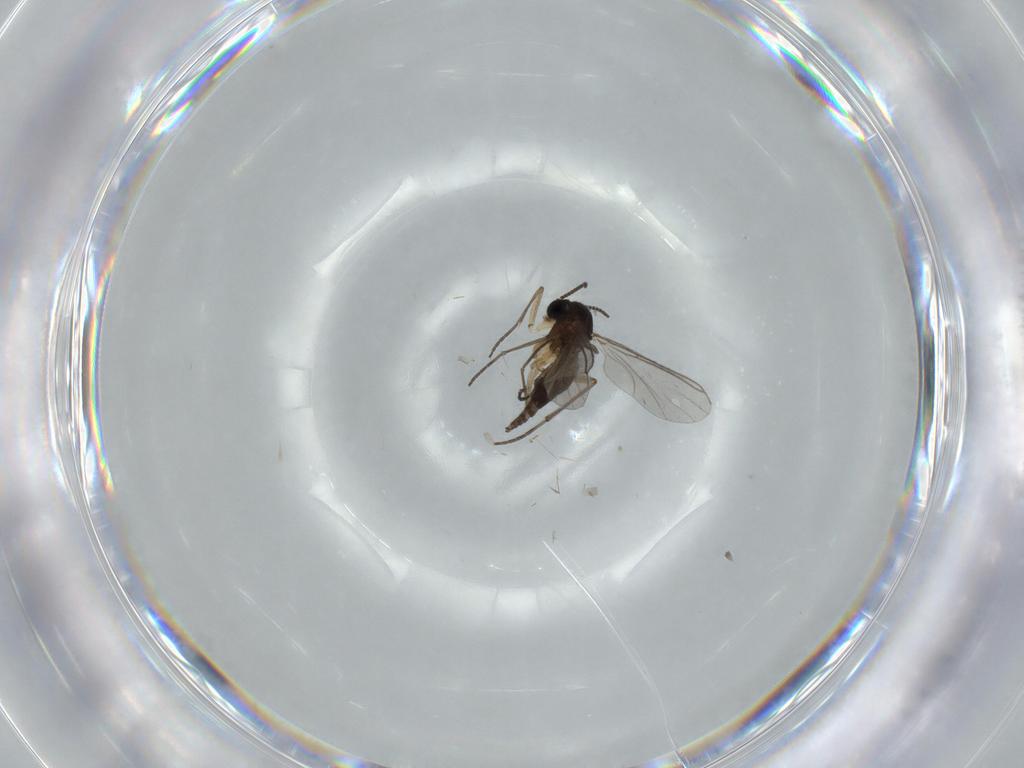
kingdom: Animalia
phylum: Arthropoda
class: Insecta
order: Diptera
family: Sciaridae
